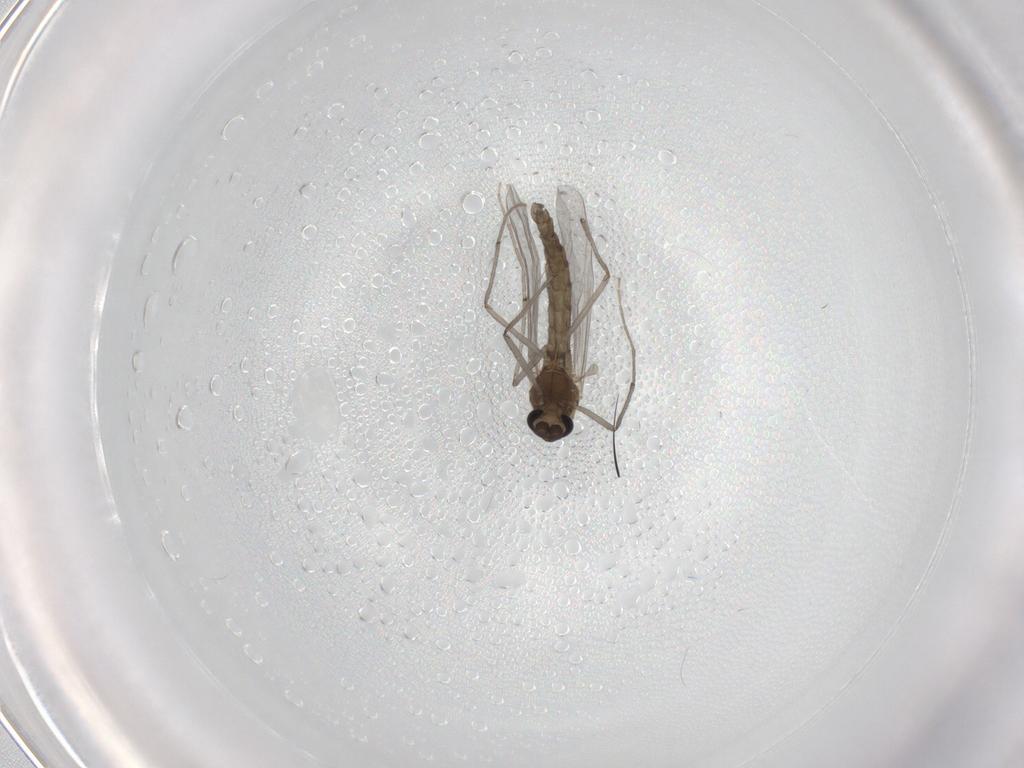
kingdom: Animalia
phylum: Arthropoda
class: Insecta
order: Diptera
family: Chironomidae
